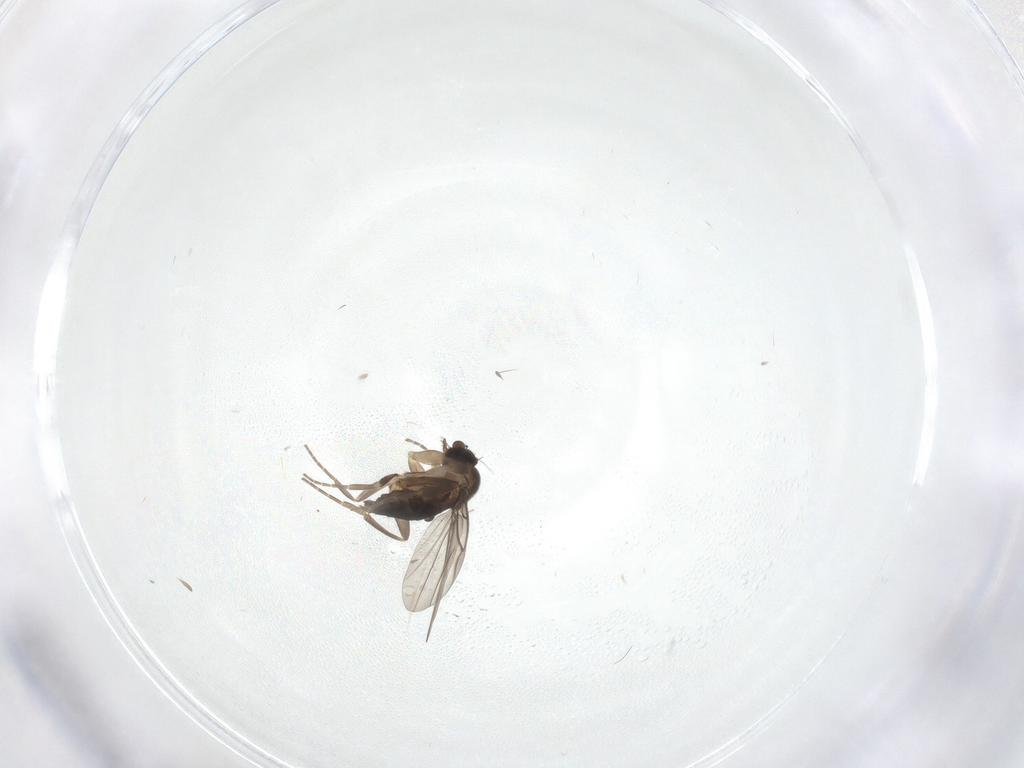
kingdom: Animalia
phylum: Arthropoda
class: Insecta
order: Diptera
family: Phoridae
